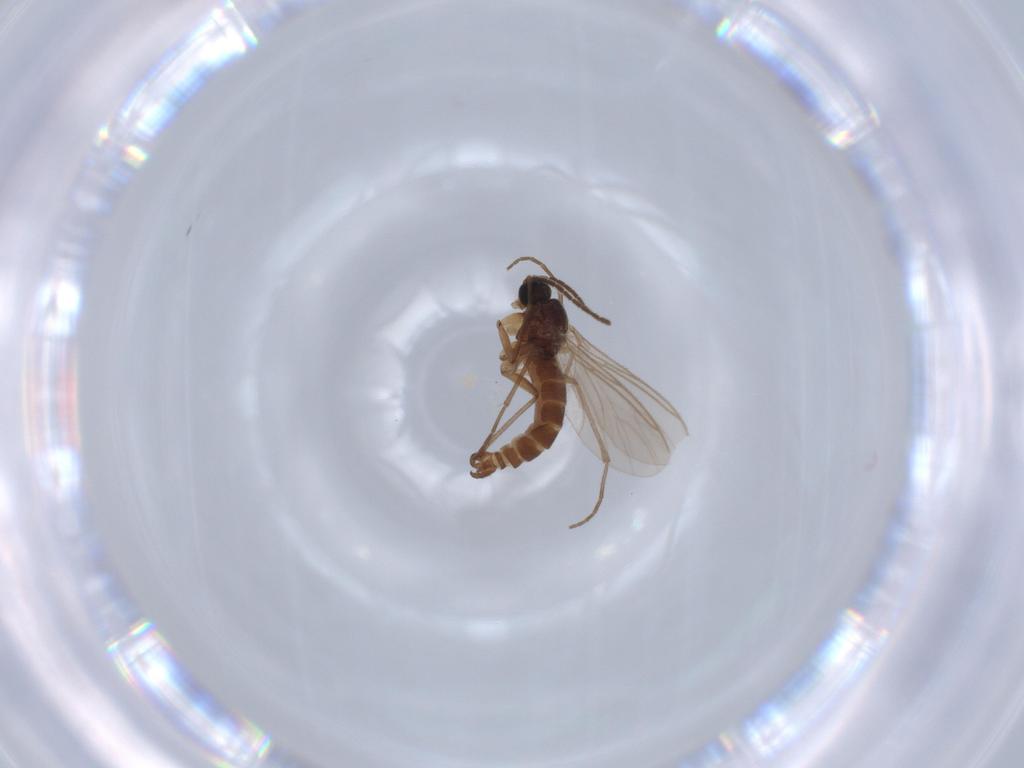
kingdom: Animalia
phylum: Arthropoda
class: Insecta
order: Diptera
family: Sciaridae
